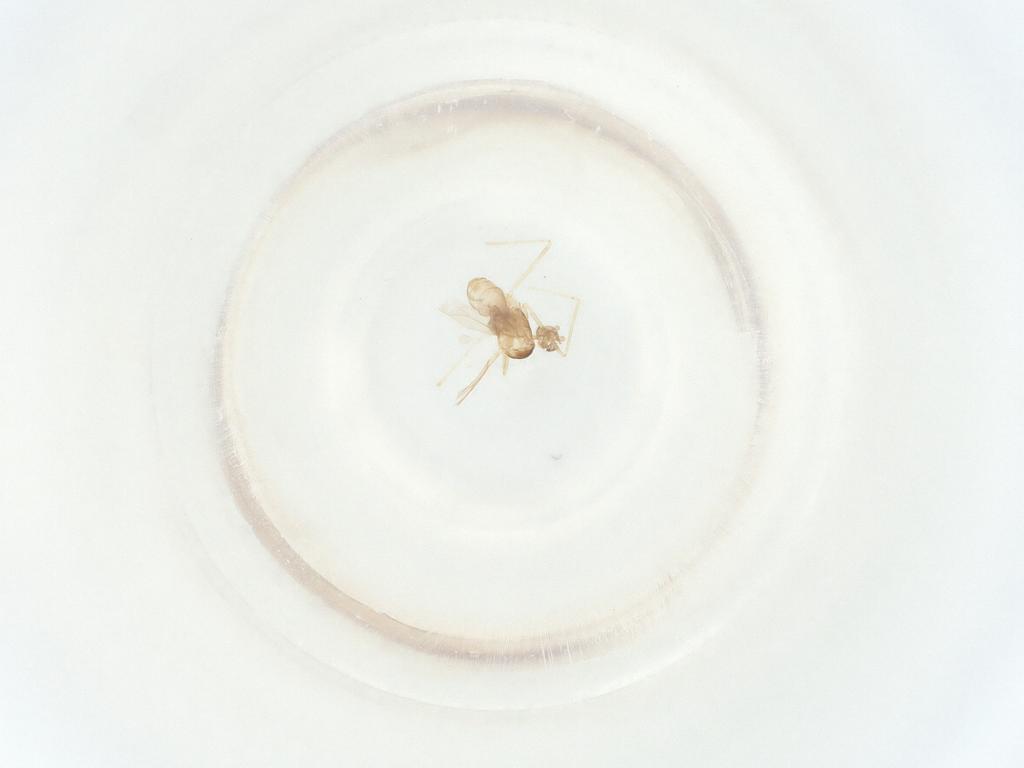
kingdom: Animalia
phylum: Arthropoda
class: Insecta
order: Diptera
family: Cecidomyiidae
